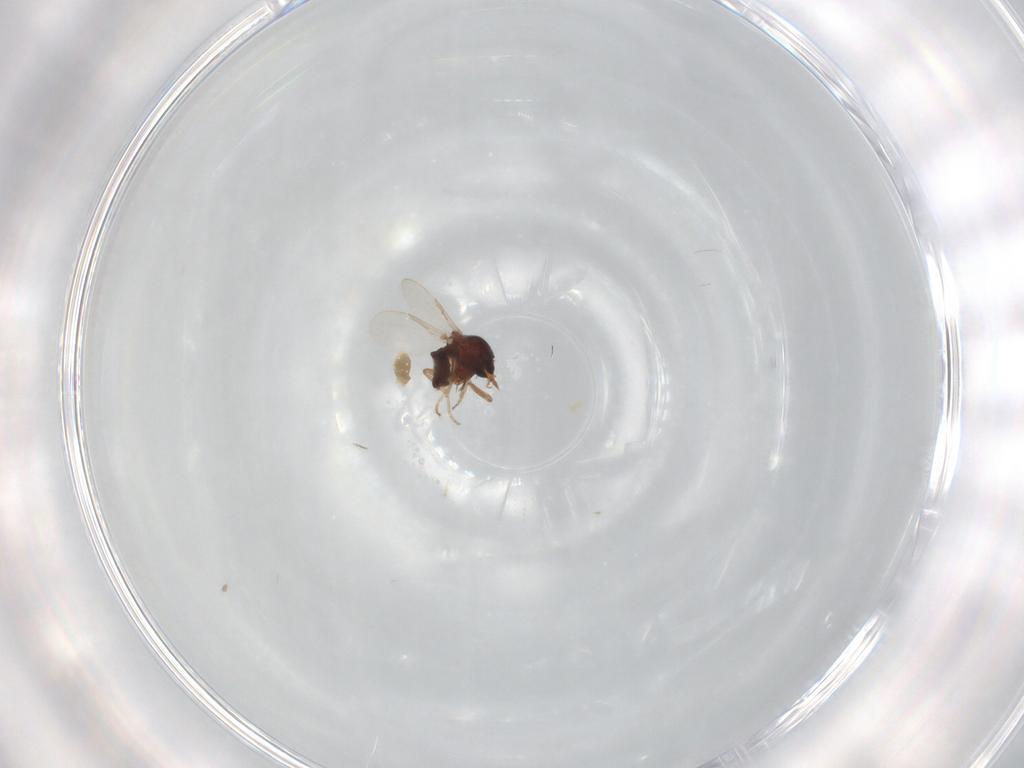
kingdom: Animalia
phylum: Arthropoda
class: Insecta
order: Diptera
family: Ceratopogonidae
